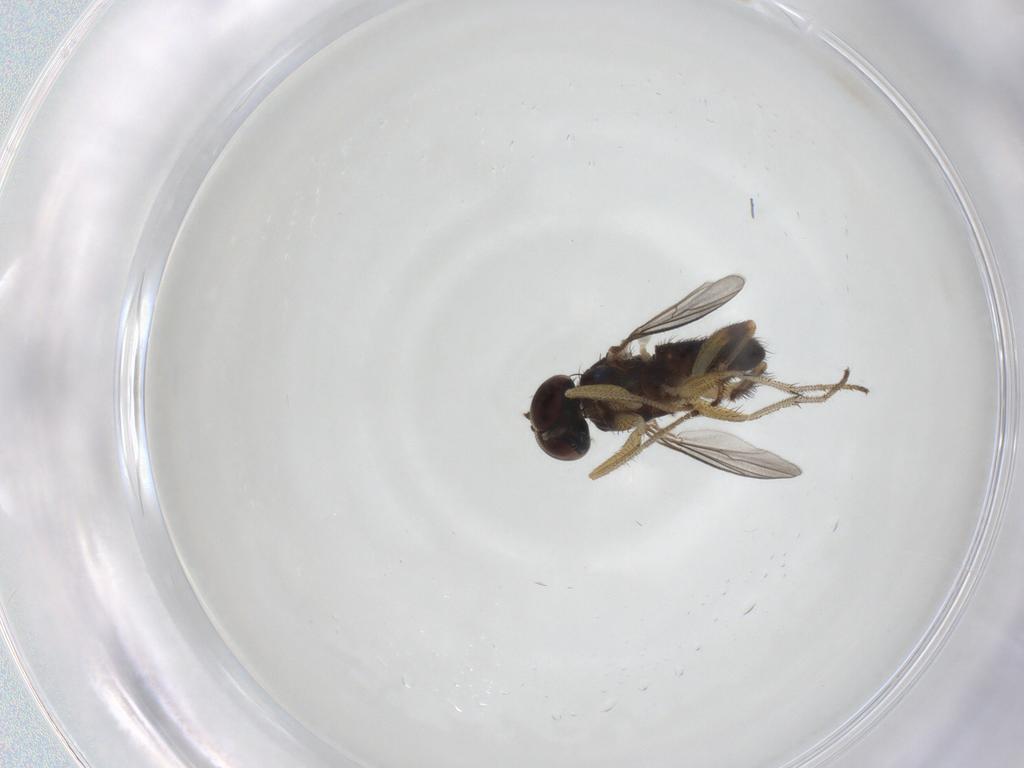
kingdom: Animalia
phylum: Arthropoda
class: Insecta
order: Diptera
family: Dolichopodidae
